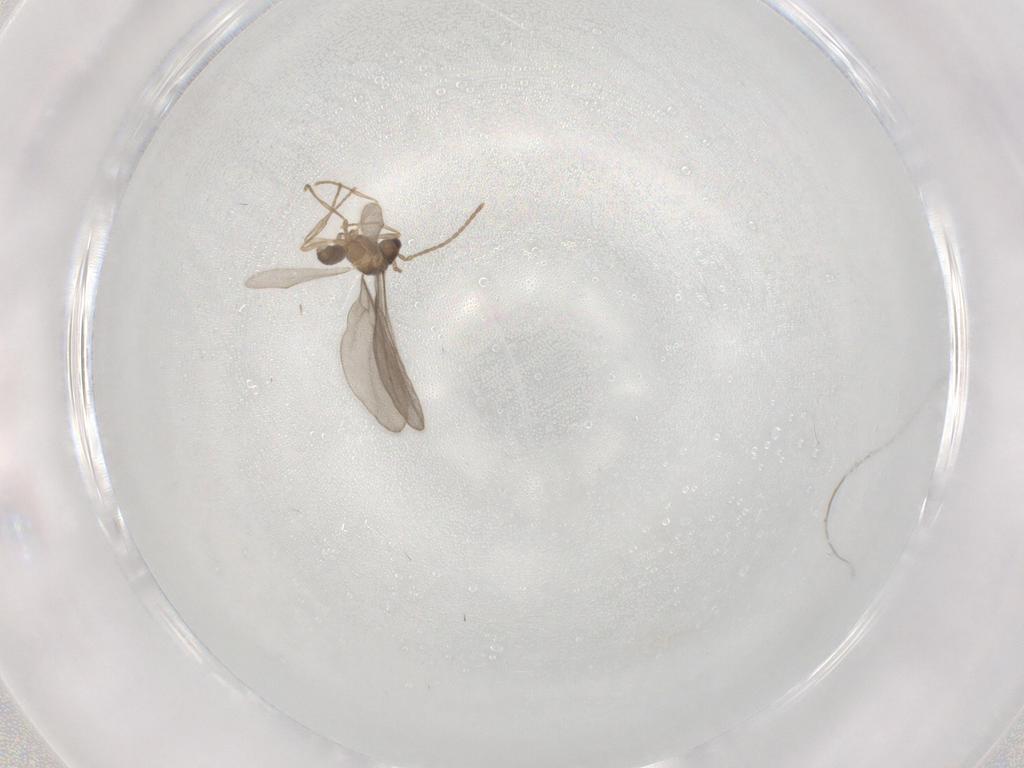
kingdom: Animalia
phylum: Arthropoda
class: Insecta
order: Hymenoptera
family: Formicidae
